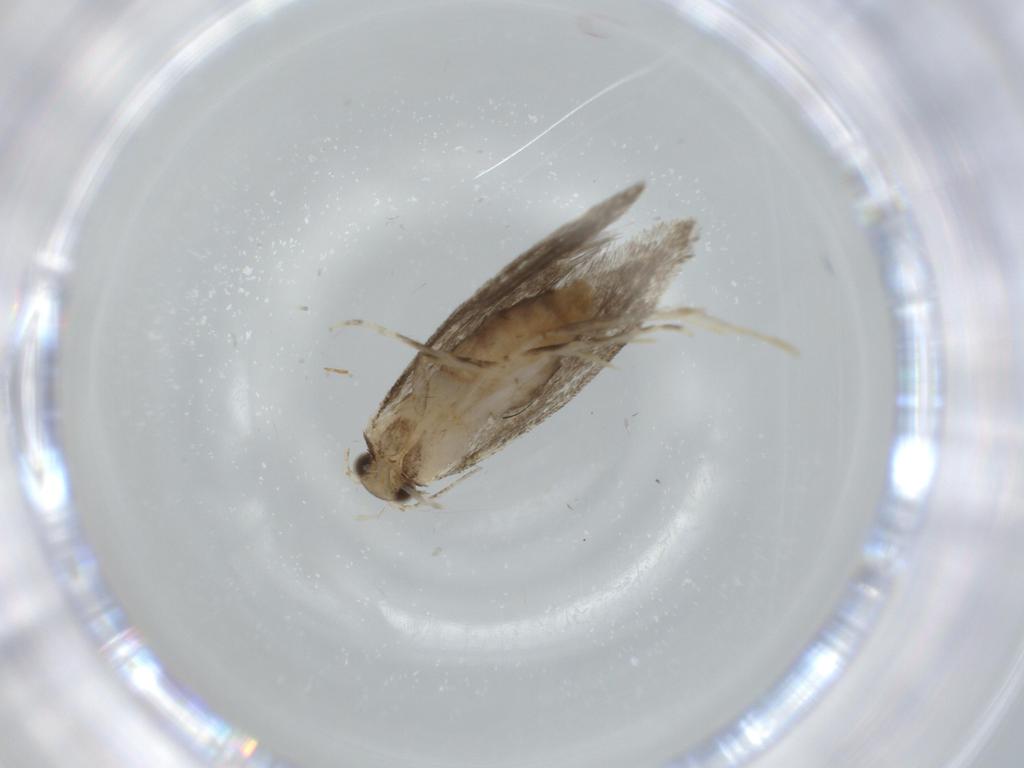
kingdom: Animalia
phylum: Arthropoda
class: Insecta
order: Lepidoptera
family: Tineidae
